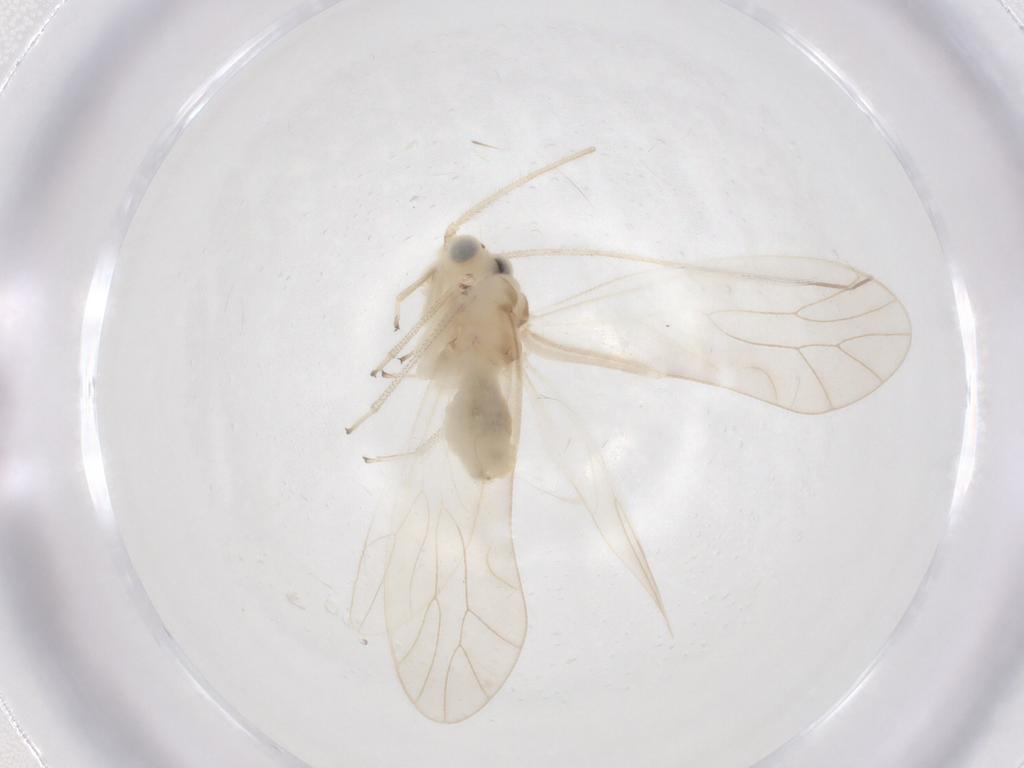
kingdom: Animalia
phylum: Arthropoda
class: Insecta
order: Psocodea
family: Caeciliusidae
